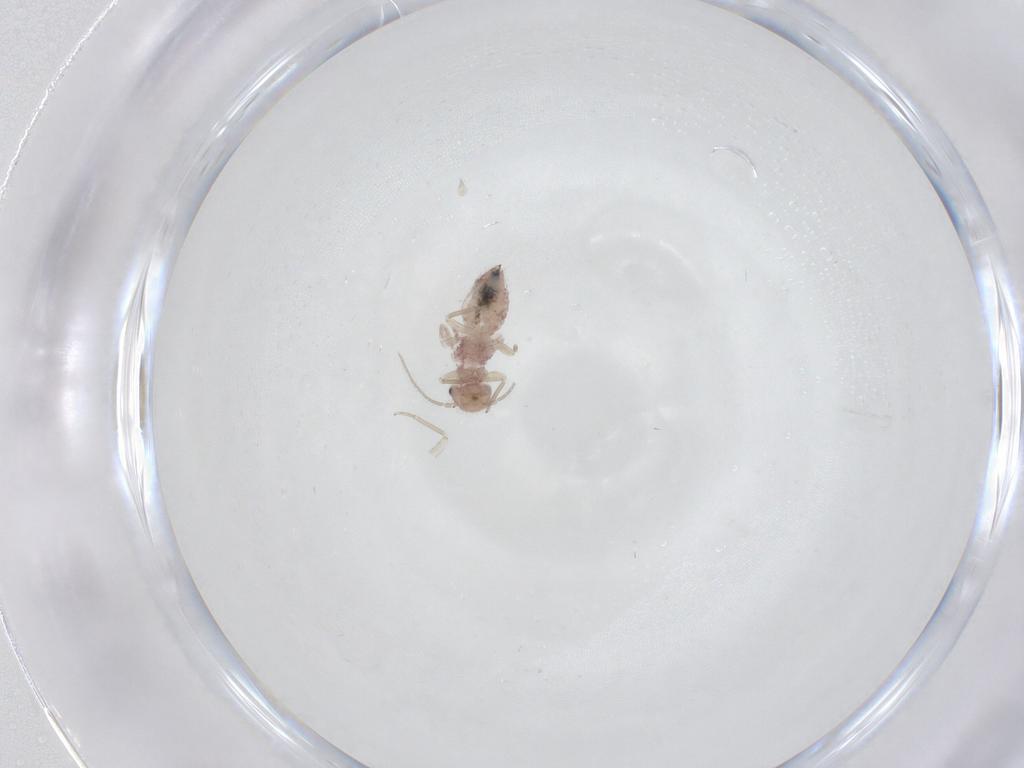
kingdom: Animalia
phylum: Arthropoda
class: Insecta
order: Psocodea
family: Ectopsocidae
